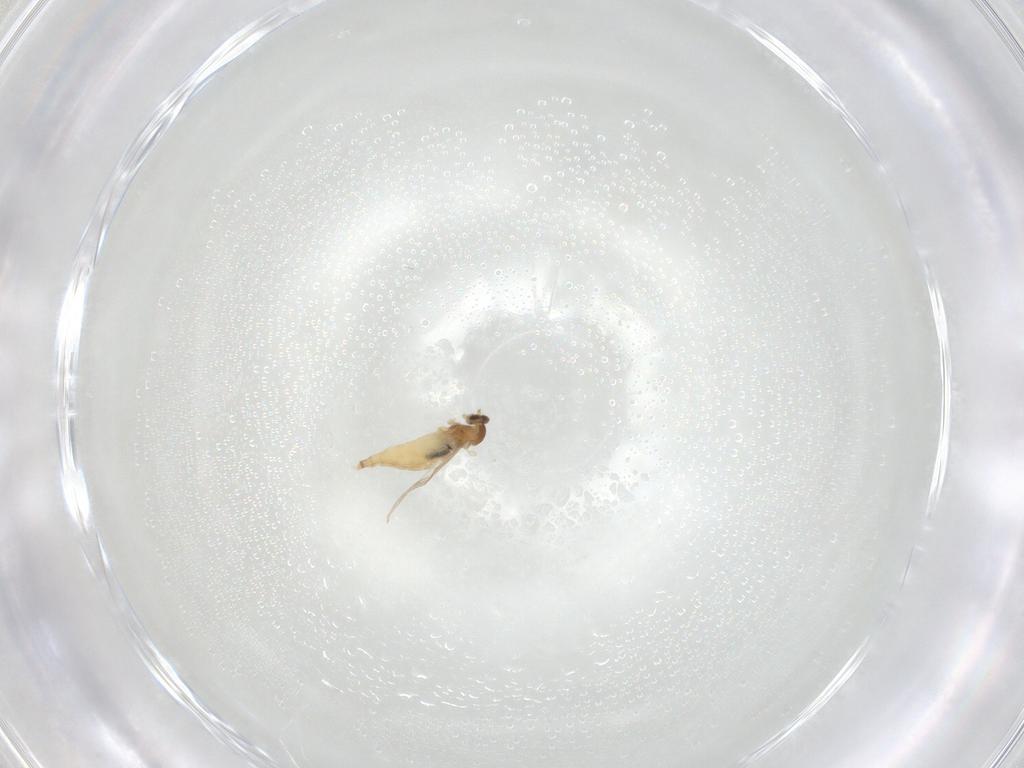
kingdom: Animalia
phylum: Arthropoda
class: Insecta
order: Diptera
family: Cecidomyiidae
